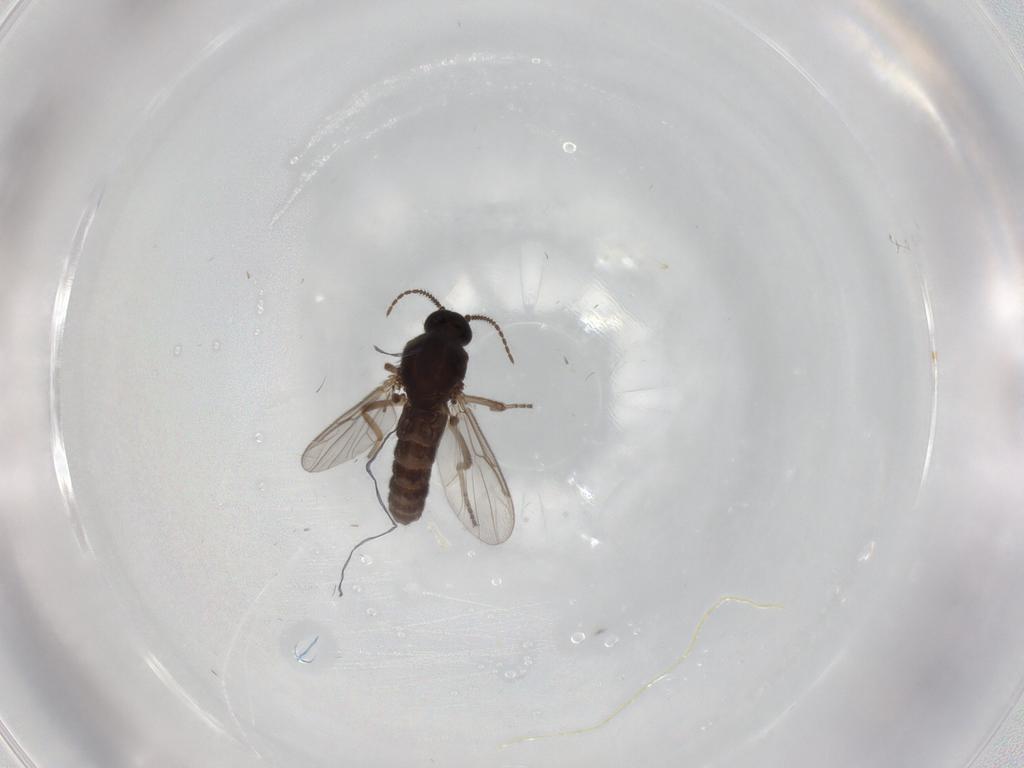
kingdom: Animalia
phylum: Arthropoda
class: Insecta
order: Diptera
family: Ceratopogonidae
